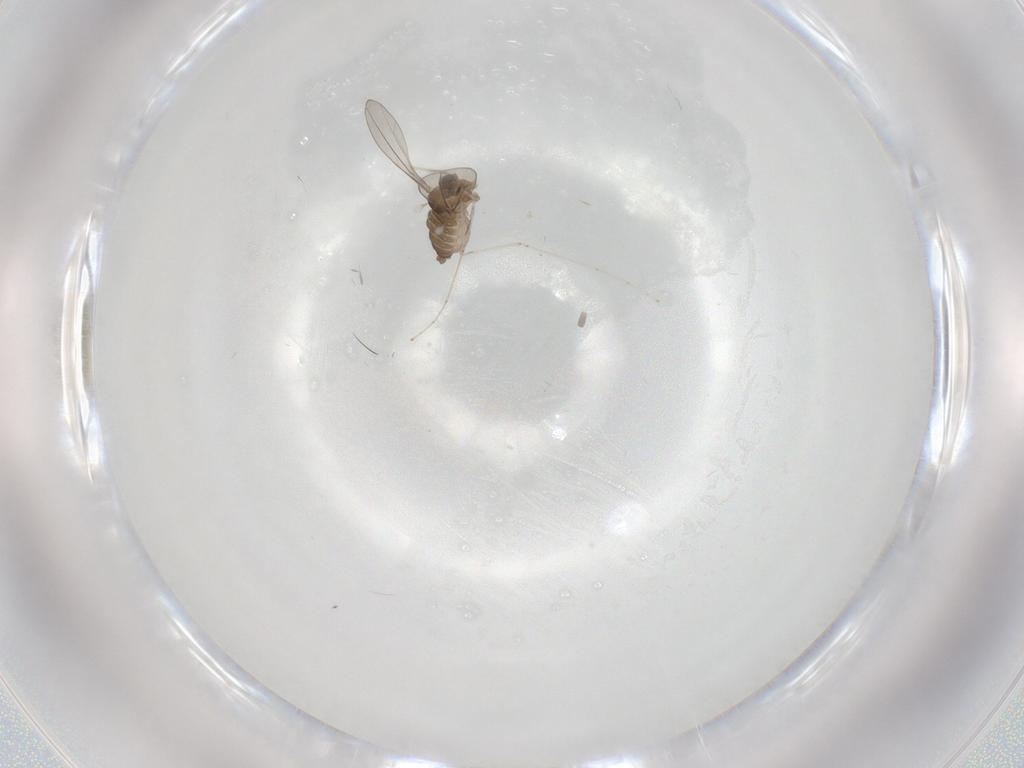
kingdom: Animalia
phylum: Arthropoda
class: Insecta
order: Diptera
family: Cecidomyiidae
